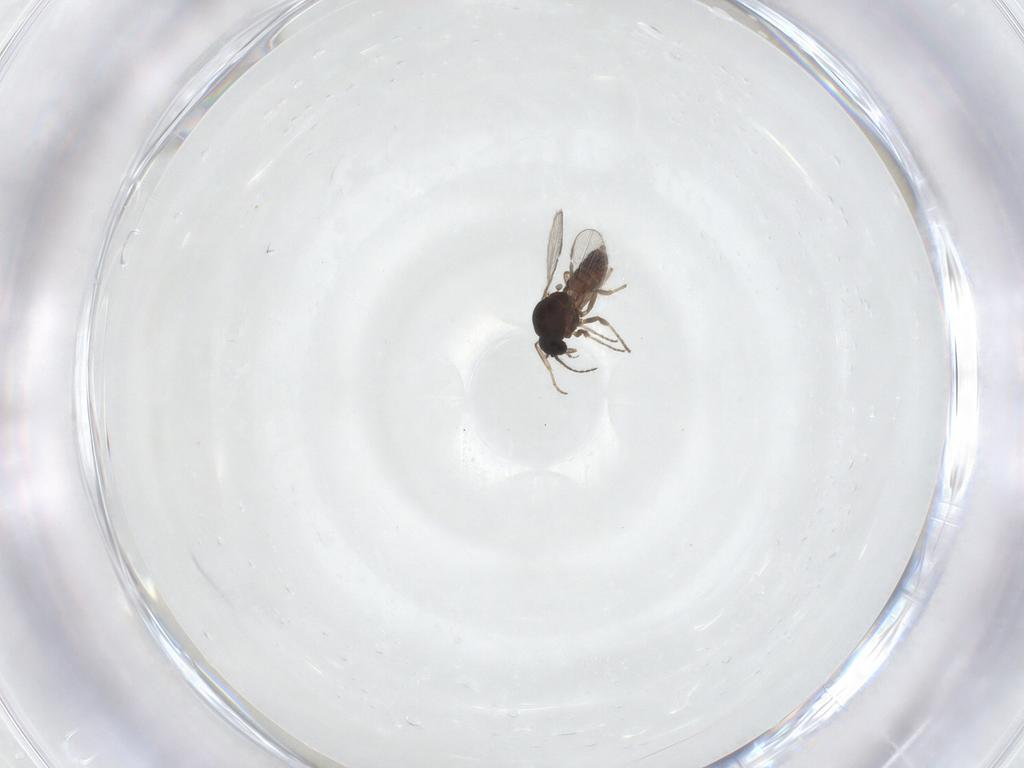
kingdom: Animalia
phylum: Arthropoda
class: Insecta
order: Diptera
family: Ceratopogonidae
